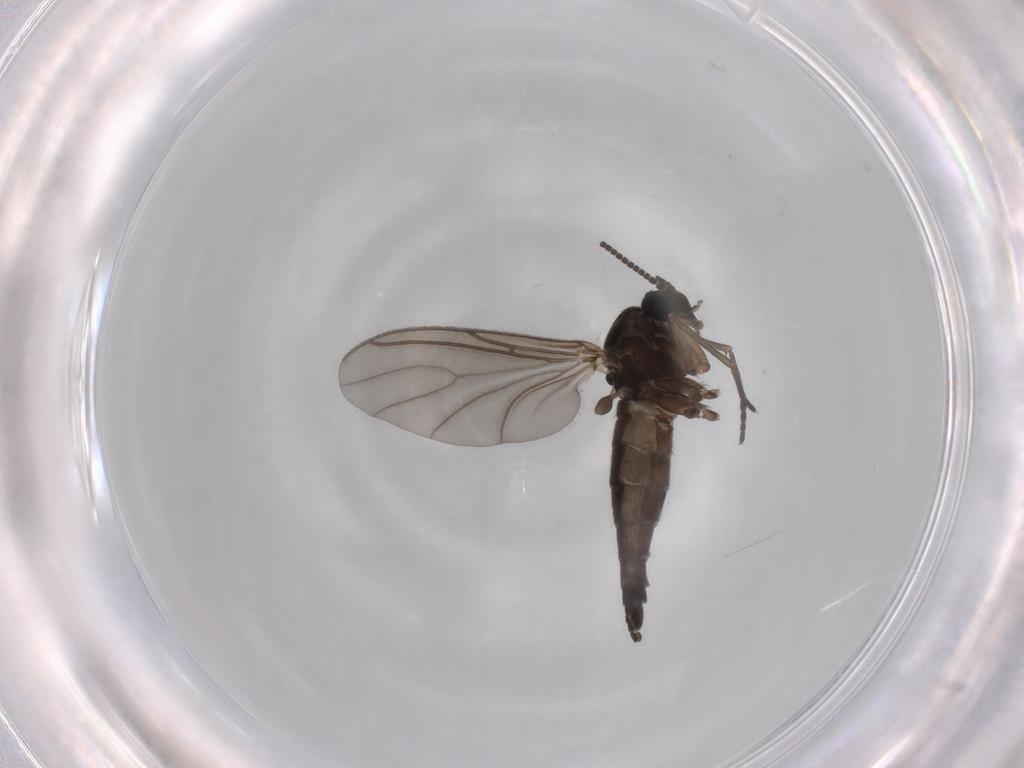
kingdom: Animalia
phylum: Arthropoda
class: Insecta
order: Diptera
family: Sciaridae
